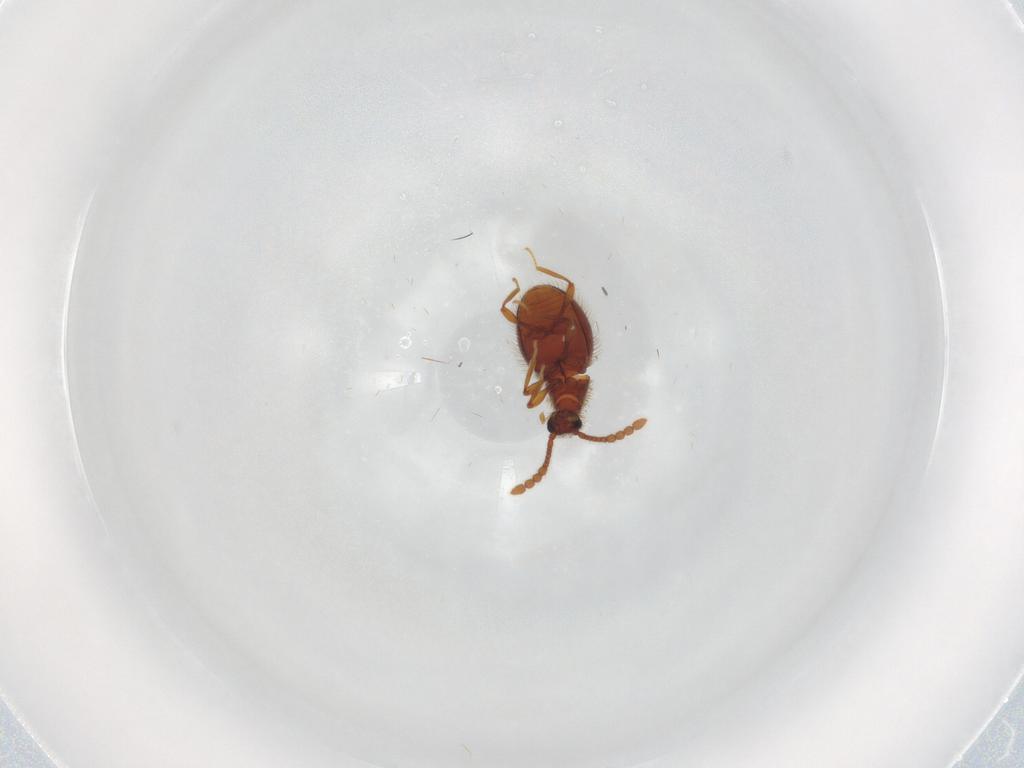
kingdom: Animalia
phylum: Arthropoda
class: Insecta
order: Coleoptera
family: Staphylinidae
